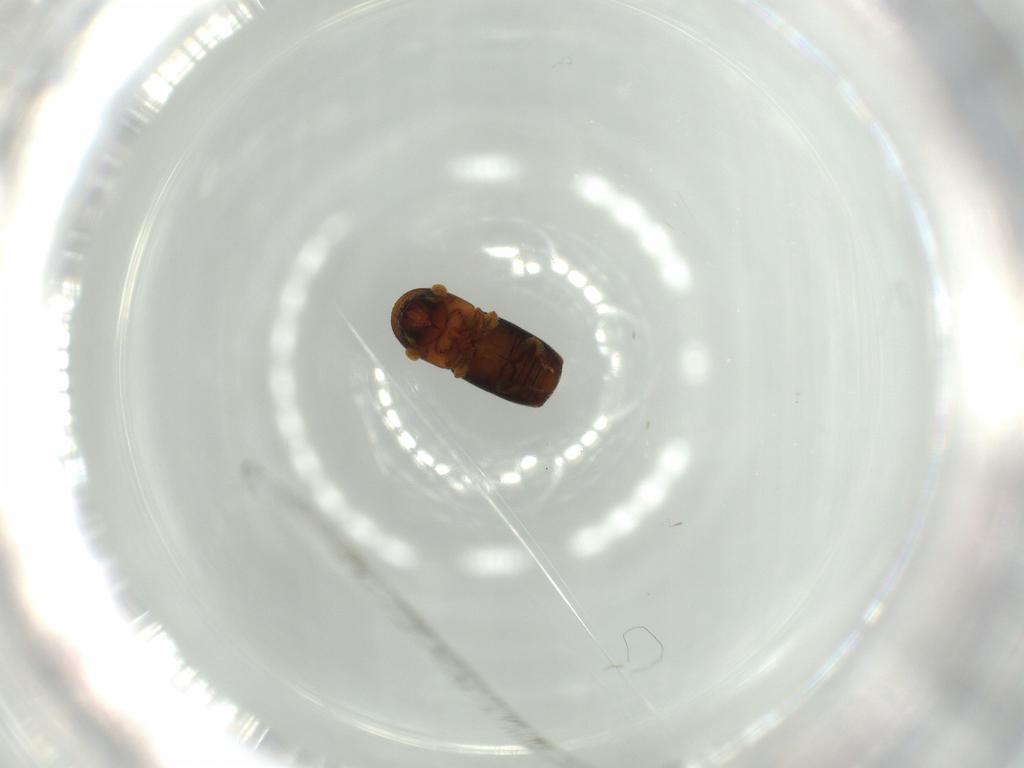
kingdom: Animalia
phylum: Arthropoda
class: Insecta
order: Coleoptera
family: Curculionidae
